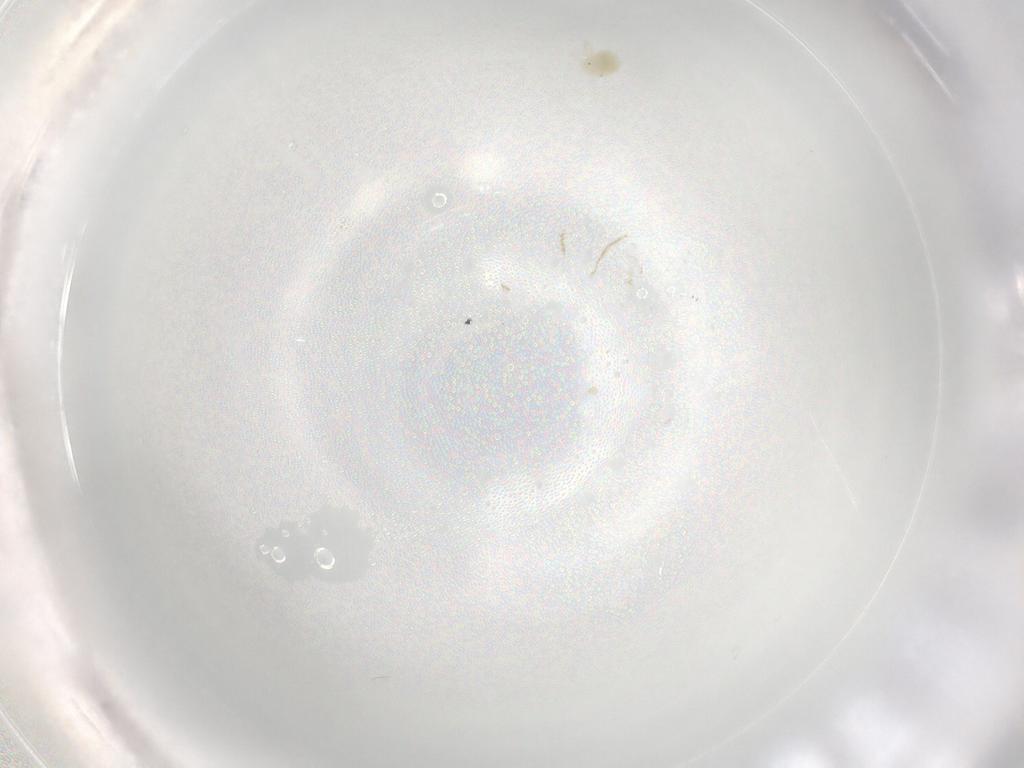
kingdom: Animalia
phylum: Arthropoda
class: Arachnida
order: Trombidiformes
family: Anystidae
